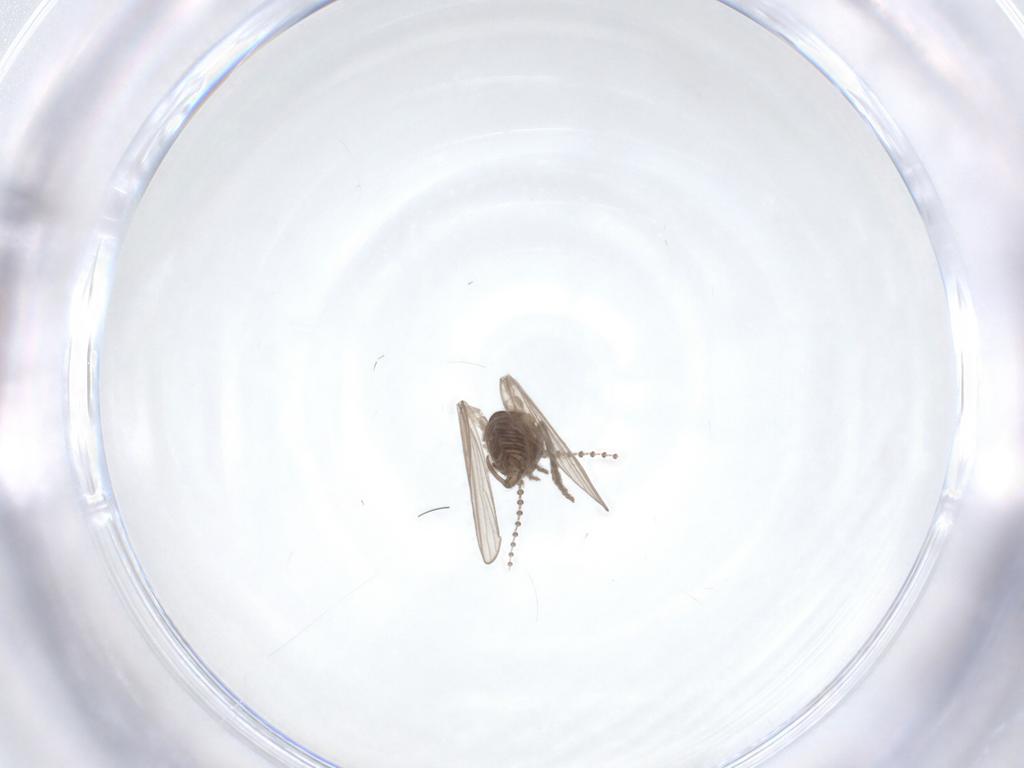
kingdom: Animalia
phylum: Arthropoda
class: Insecta
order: Diptera
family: Psychodidae
